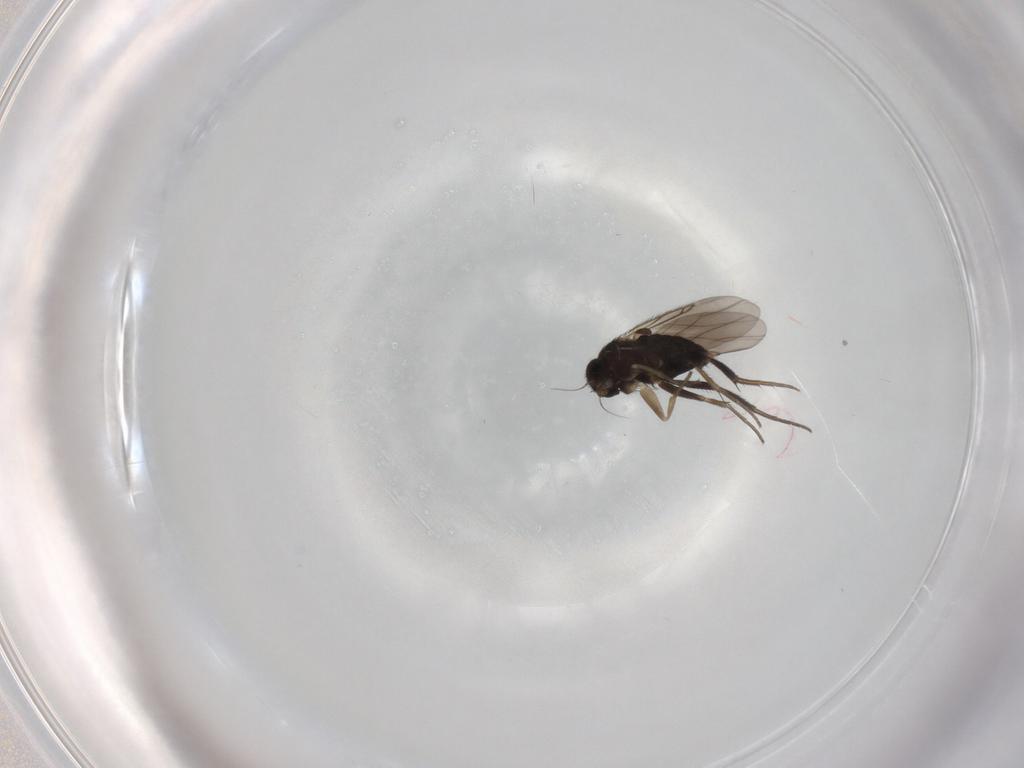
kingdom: Animalia
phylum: Arthropoda
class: Insecta
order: Diptera
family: Phoridae
